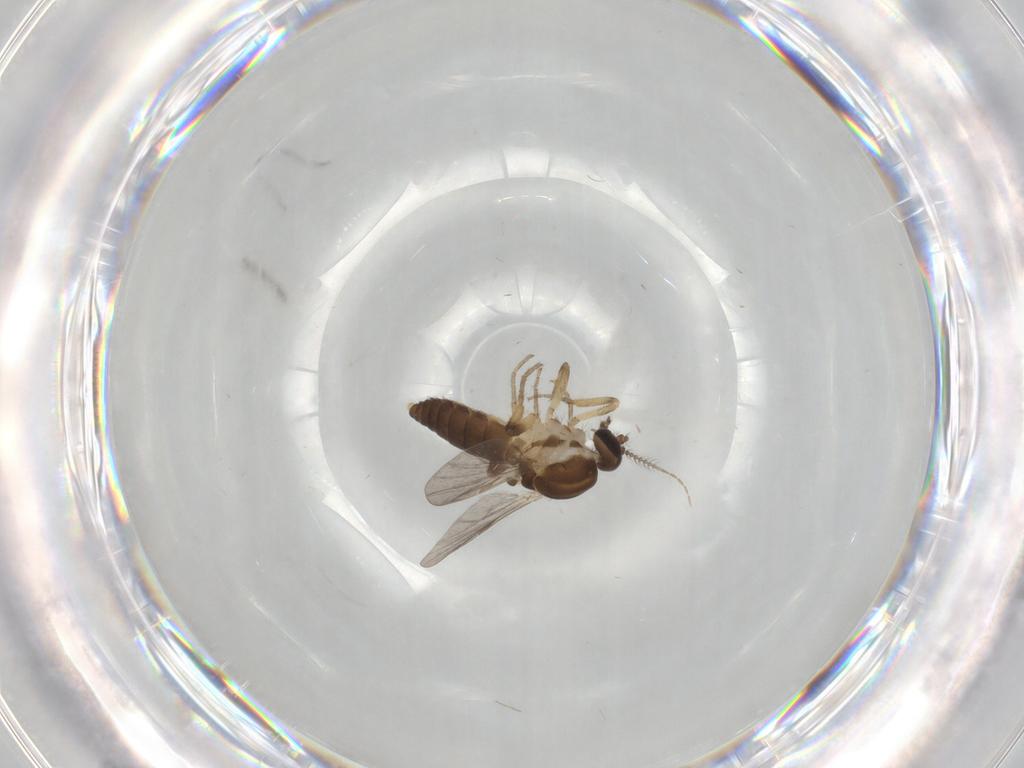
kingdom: Animalia
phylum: Arthropoda
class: Insecta
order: Diptera
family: Ceratopogonidae
